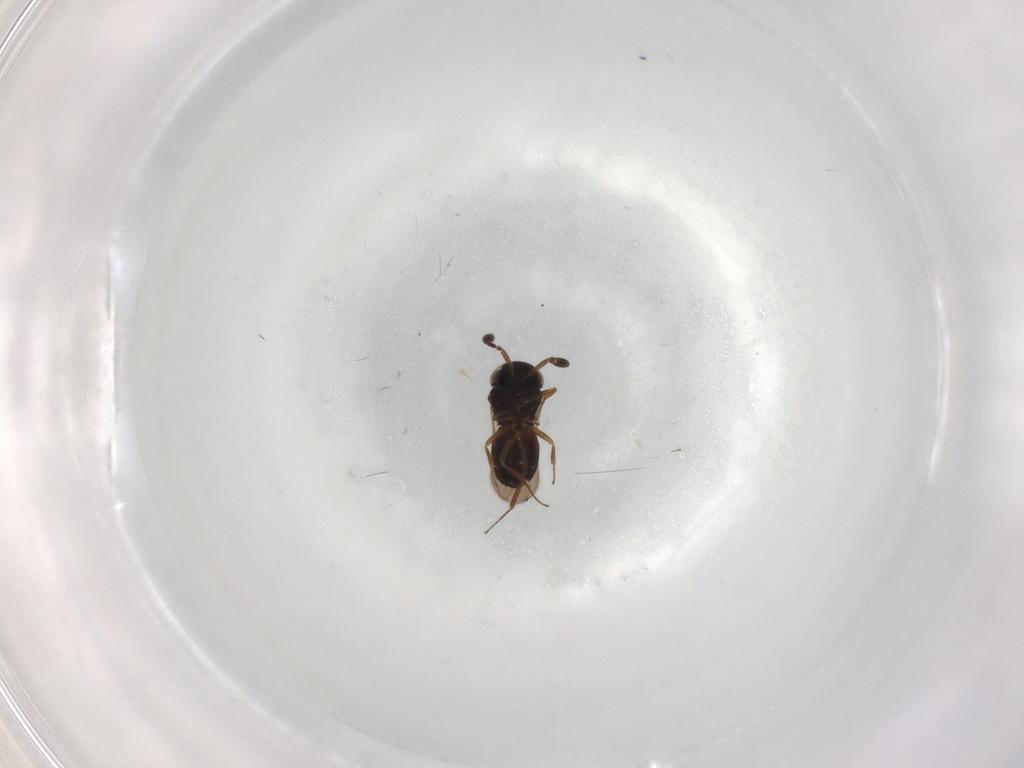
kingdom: Animalia
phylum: Arthropoda
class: Insecta
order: Hymenoptera
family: Scelionidae
